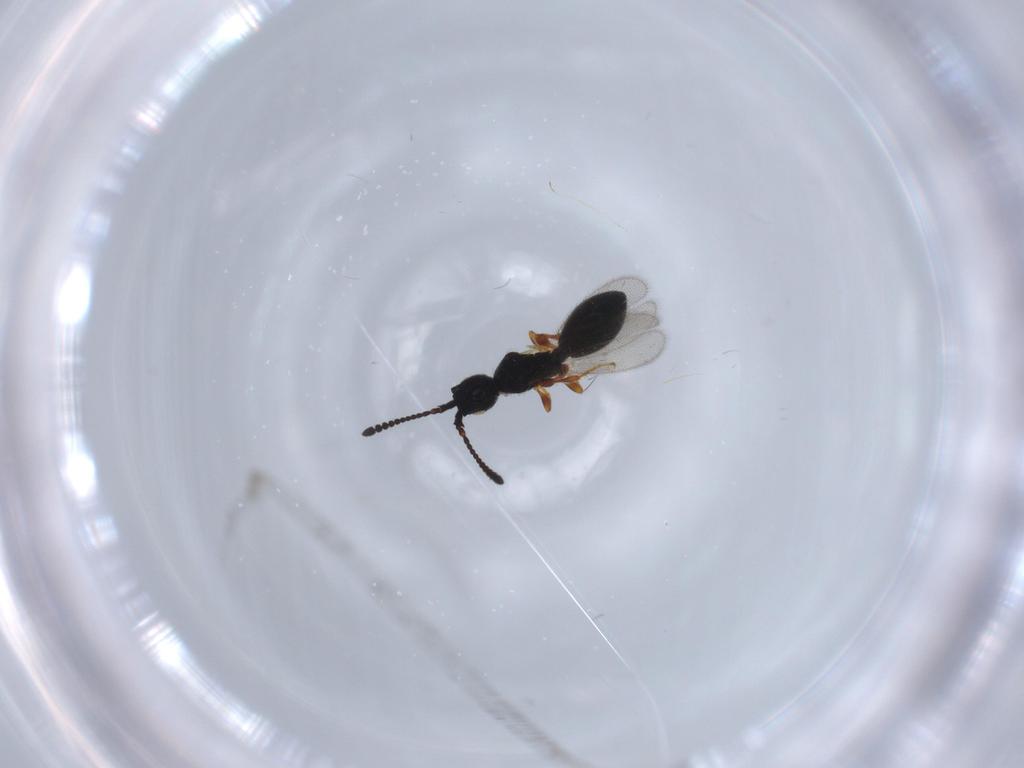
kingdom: Animalia
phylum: Arthropoda
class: Insecta
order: Hymenoptera
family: Diapriidae
